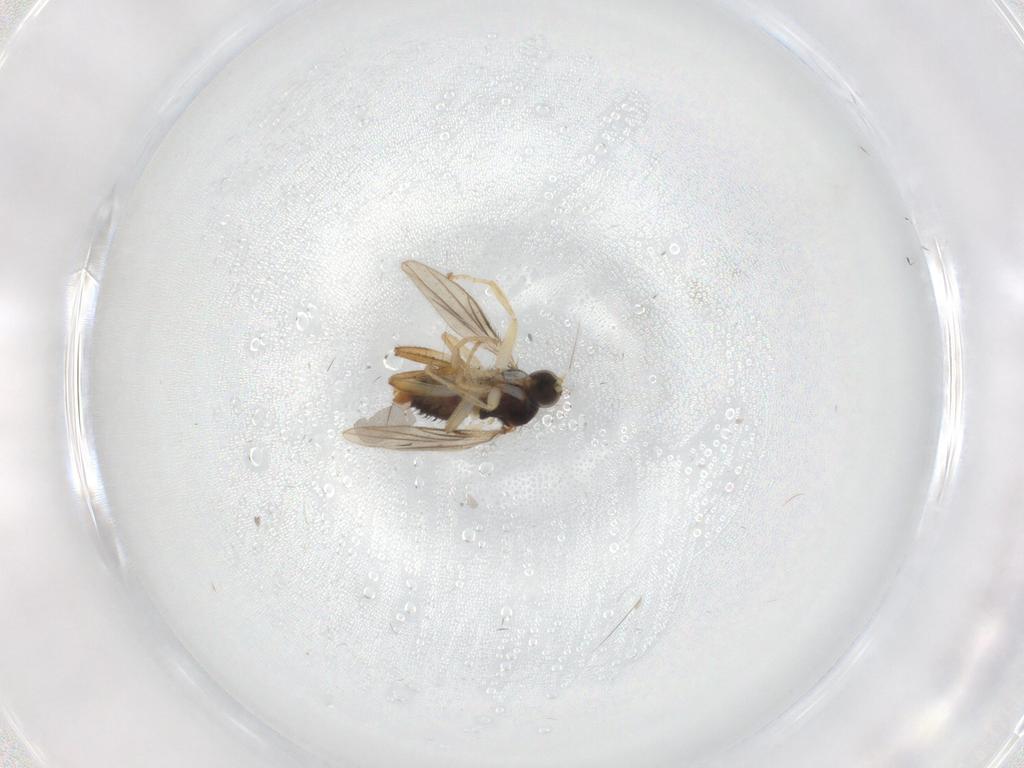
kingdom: Animalia
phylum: Arthropoda
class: Insecta
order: Diptera
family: Hybotidae
